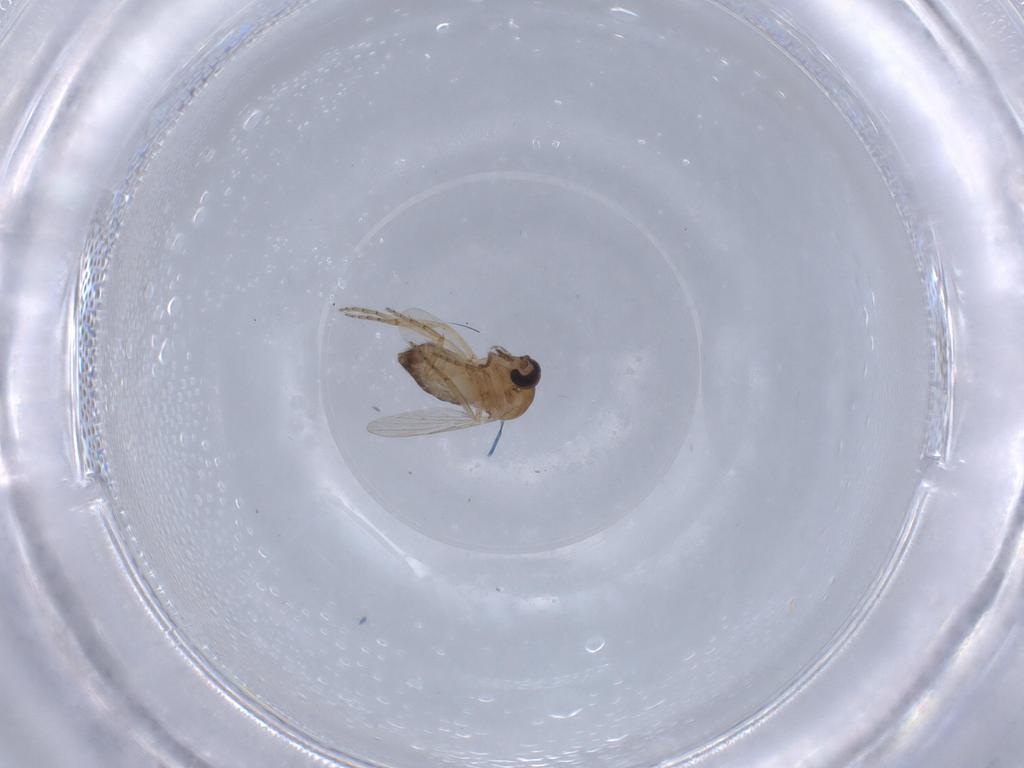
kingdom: Animalia
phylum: Arthropoda
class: Insecta
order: Diptera
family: Ceratopogonidae
